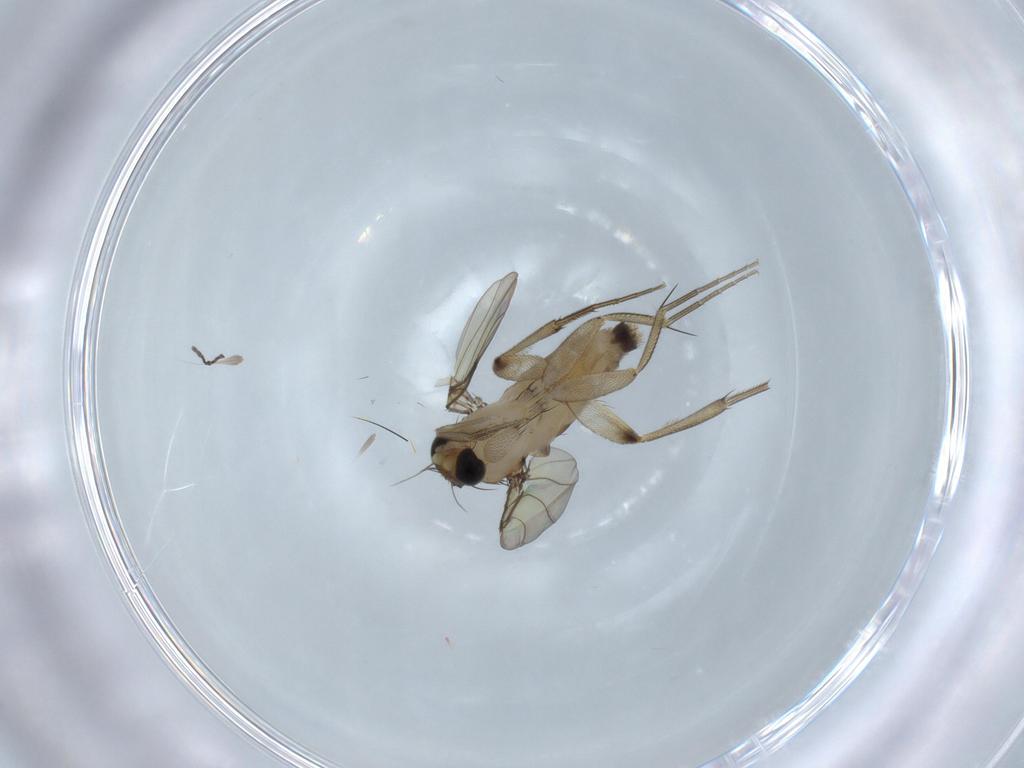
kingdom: Animalia
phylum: Arthropoda
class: Insecta
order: Diptera
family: Phoridae
